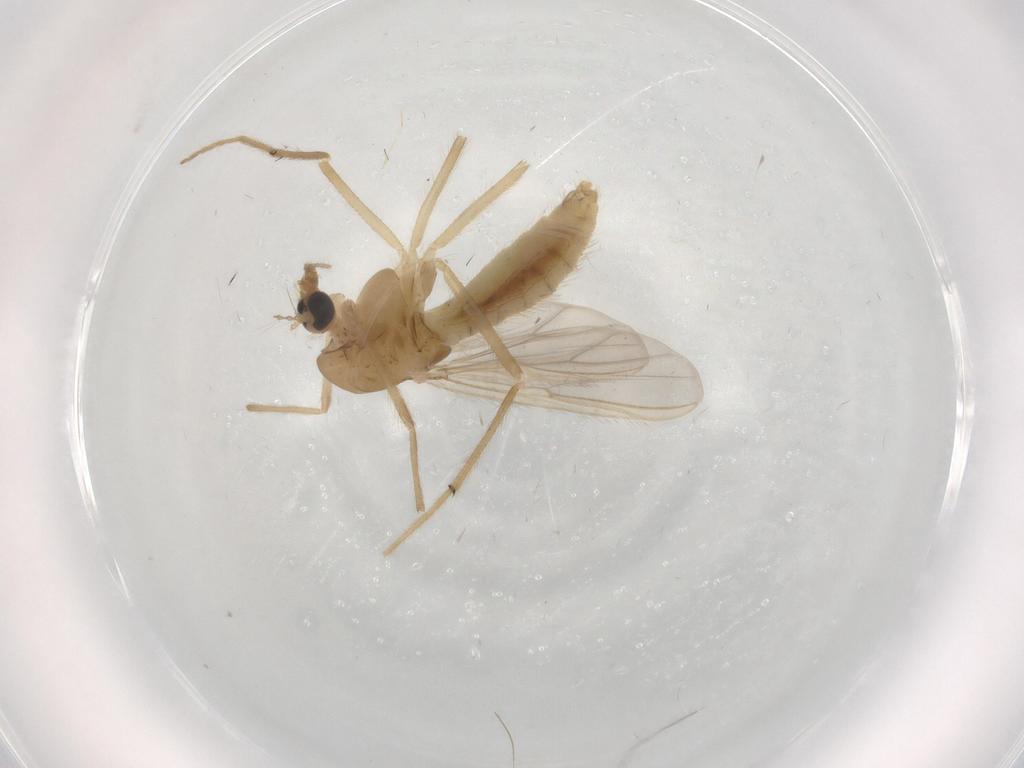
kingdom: Animalia
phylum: Arthropoda
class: Insecta
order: Diptera
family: Chironomidae
